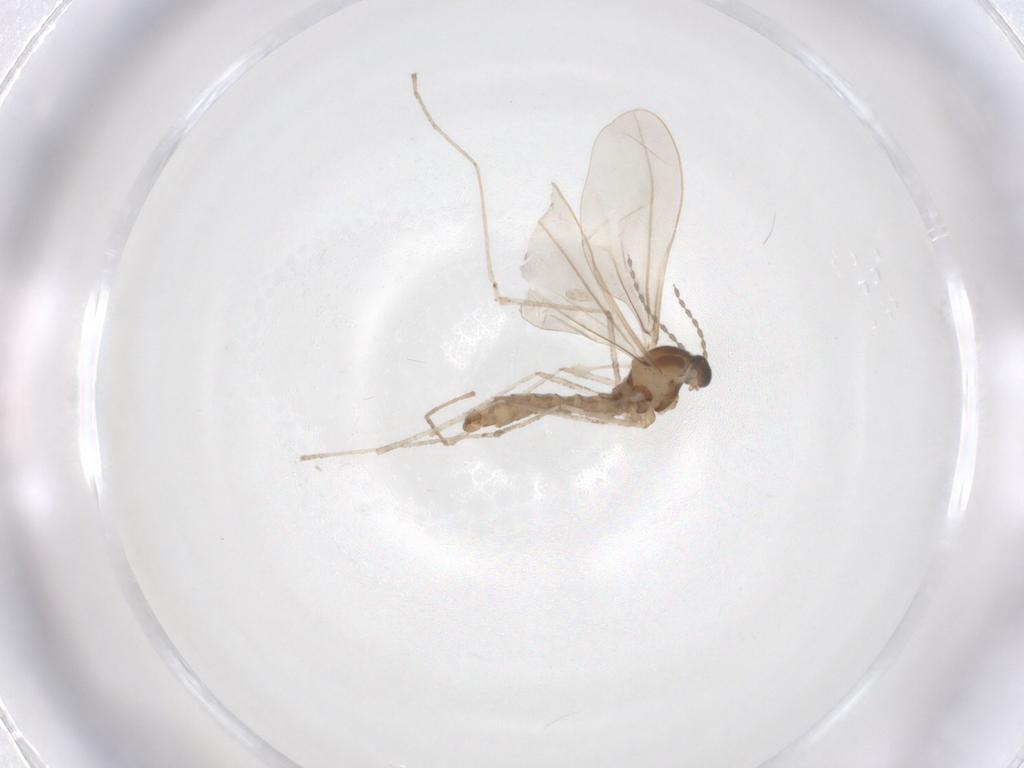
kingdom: Animalia
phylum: Arthropoda
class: Insecta
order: Diptera
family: Cecidomyiidae
